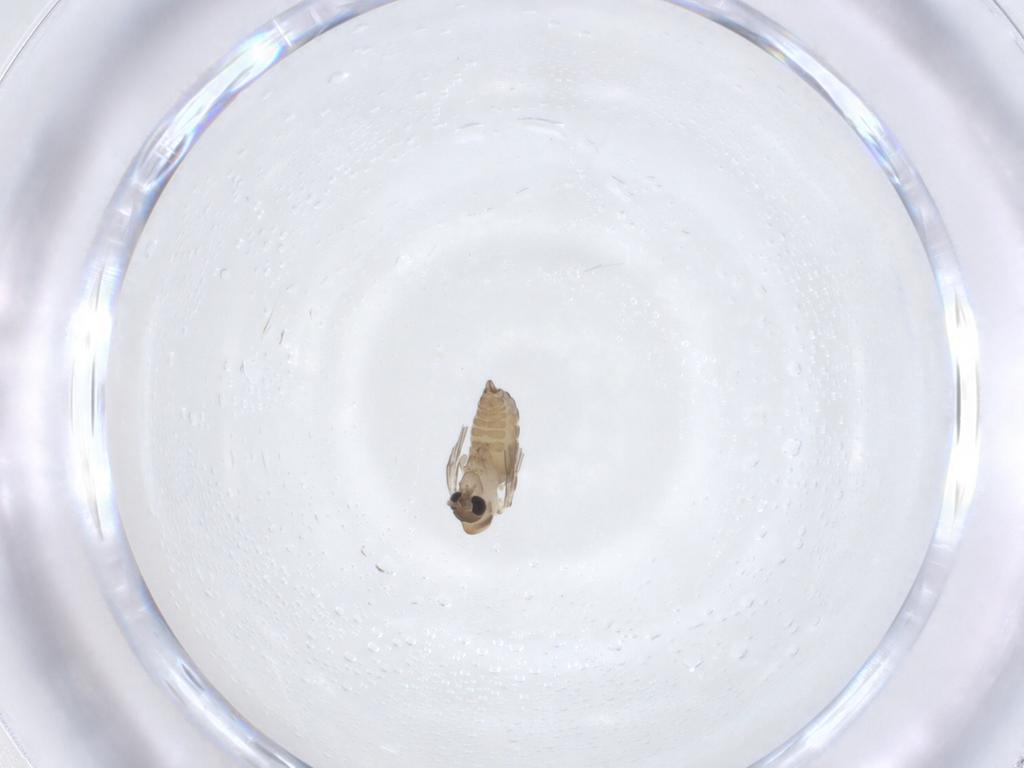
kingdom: Animalia
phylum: Arthropoda
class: Insecta
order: Diptera
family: Psychodidae
